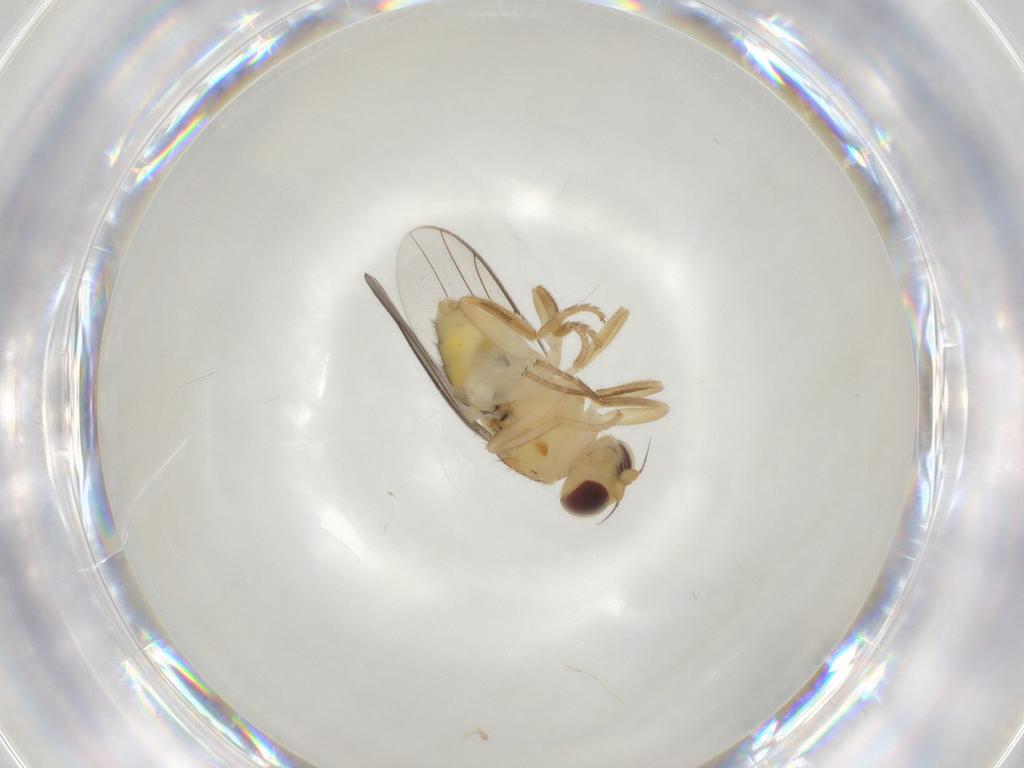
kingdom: Animalia
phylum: Arthropoda
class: Insecta
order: Diptera
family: Chloropidae
